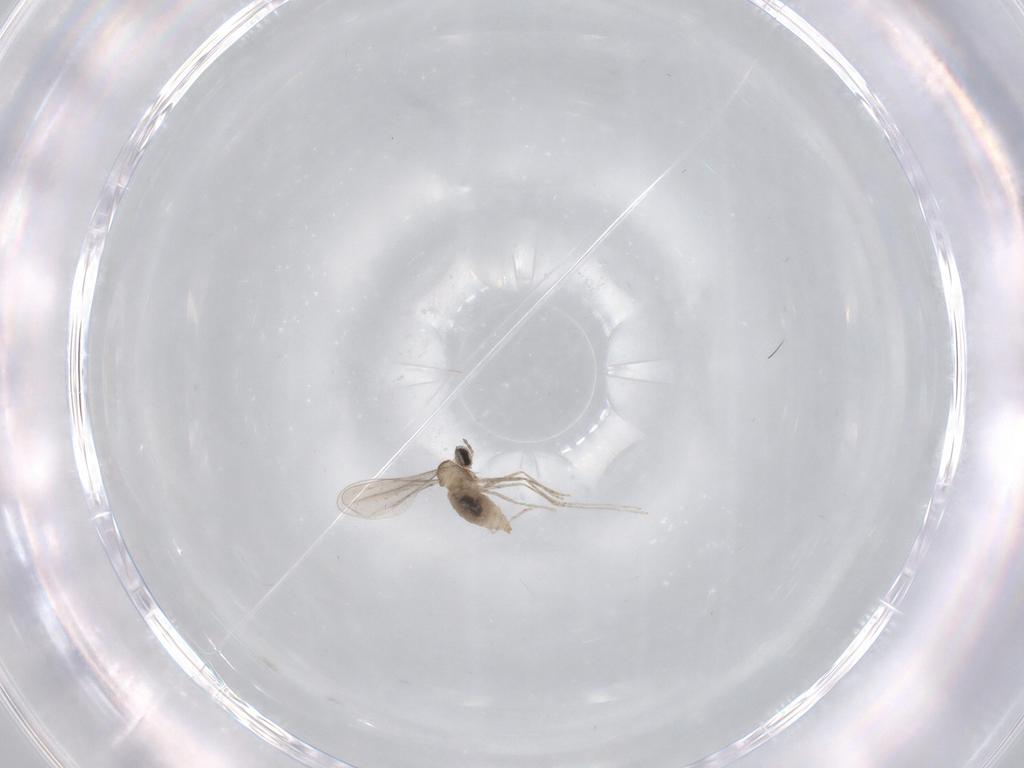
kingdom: Animalia
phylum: Arthropoda
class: Insecta
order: Diptera
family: Cecidomyiidae
